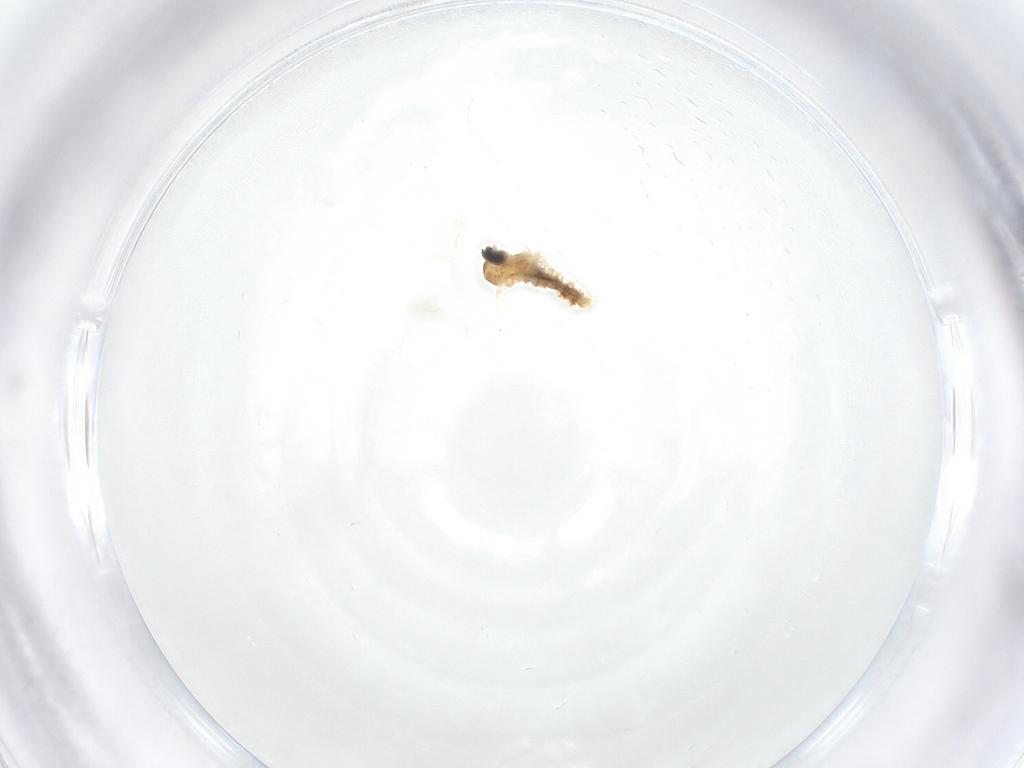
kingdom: Animalia
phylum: Arthropoda
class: Insecta
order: Diptera
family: Cecidomyiidae
